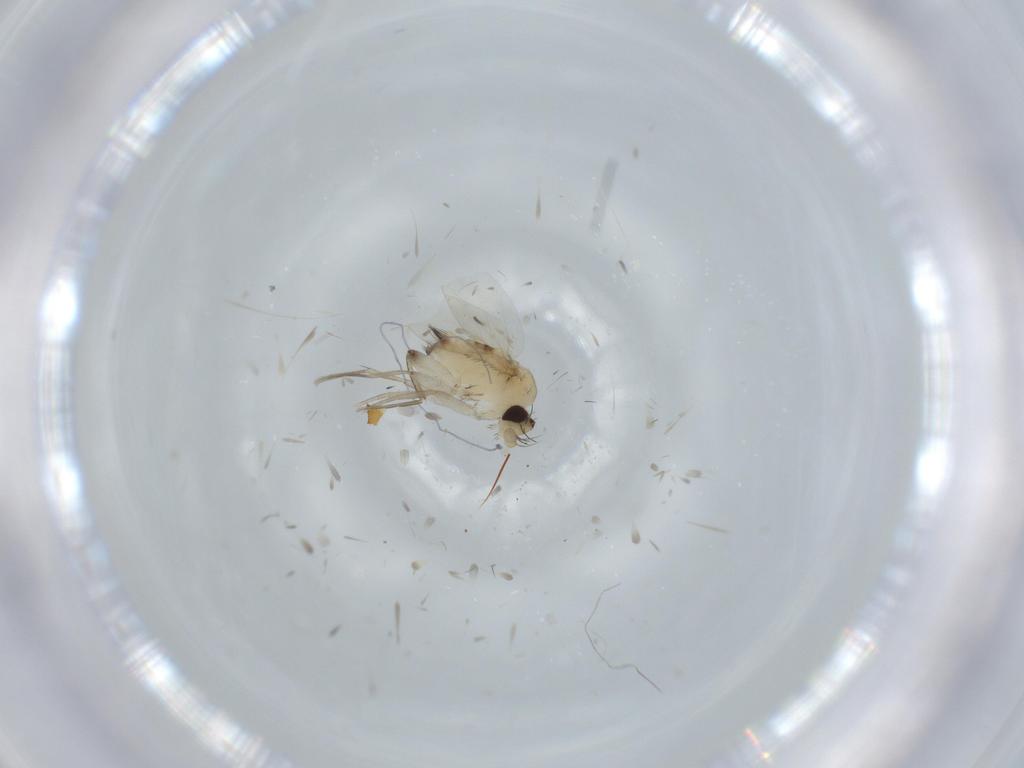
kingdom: Animalia
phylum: Arthropoda
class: Insecta
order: Diptera
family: Phoridae
